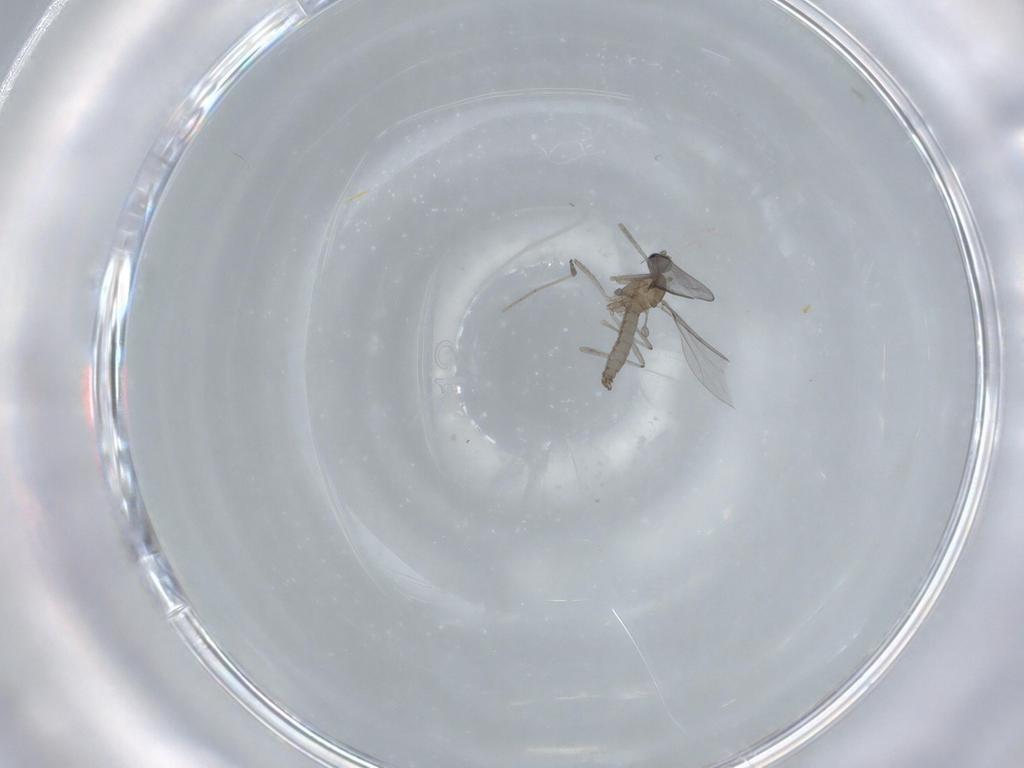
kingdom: Animalia
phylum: Arthropoda
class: Insecta
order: Diptera
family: Cecidomyiidae
